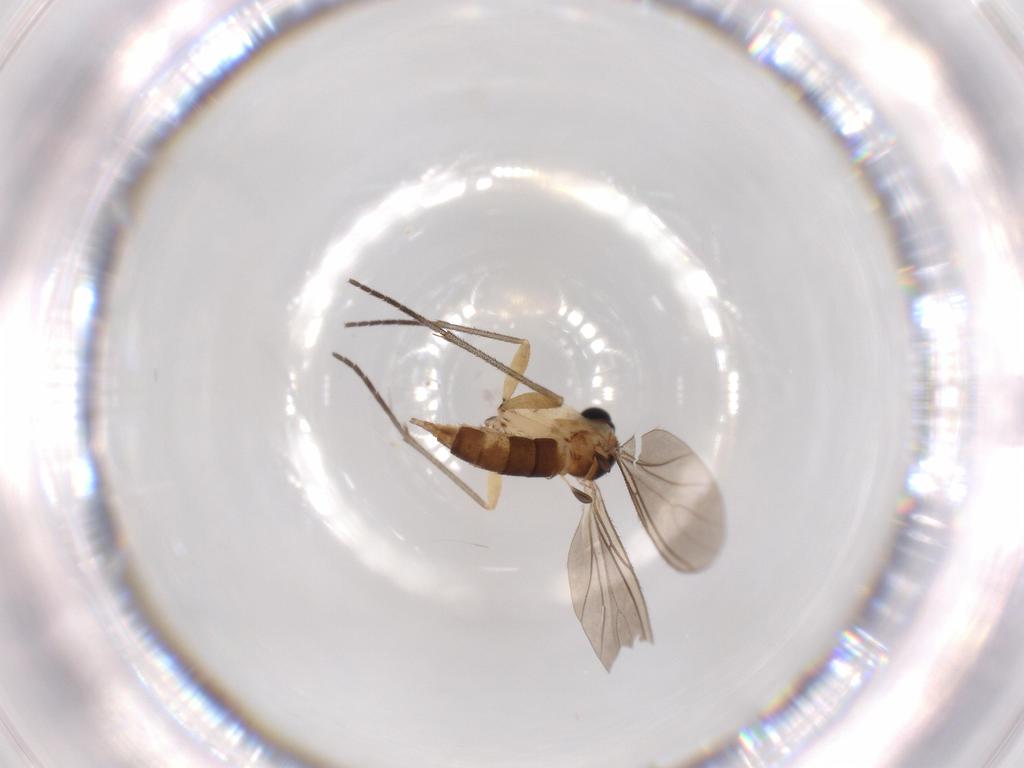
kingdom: Animalia
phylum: Arthropoda
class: Insecta
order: Diptera
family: Sciaridae
